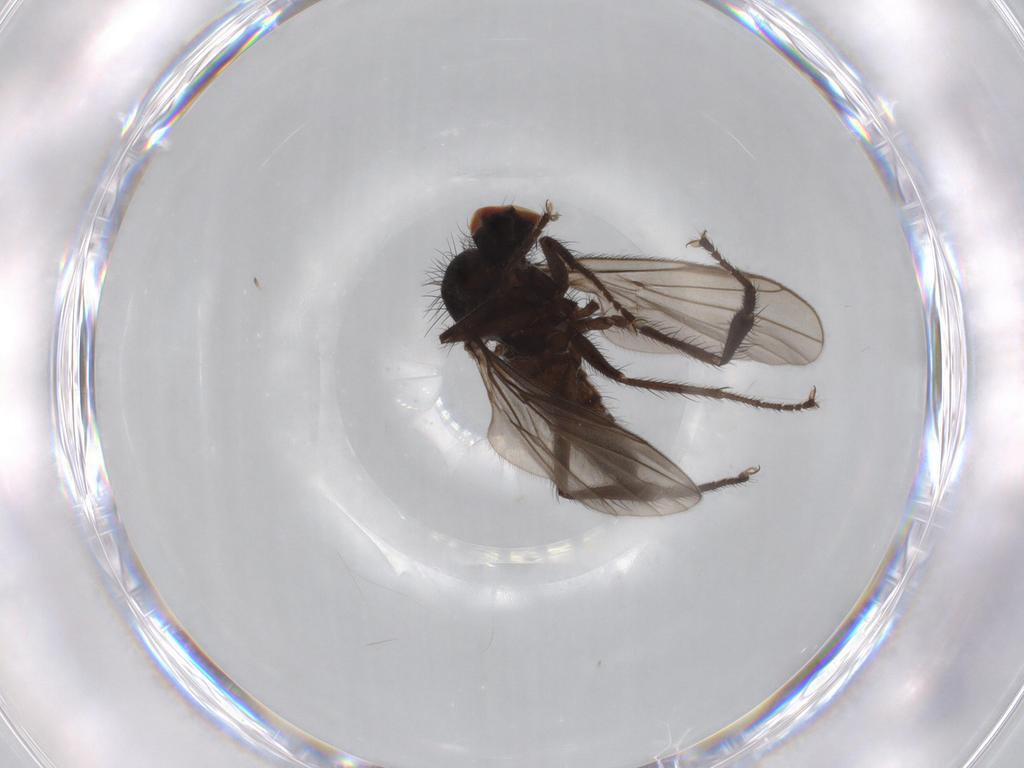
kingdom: Animalia
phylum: Arthropoda
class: Insecta
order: Diptera
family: Hybotidae
